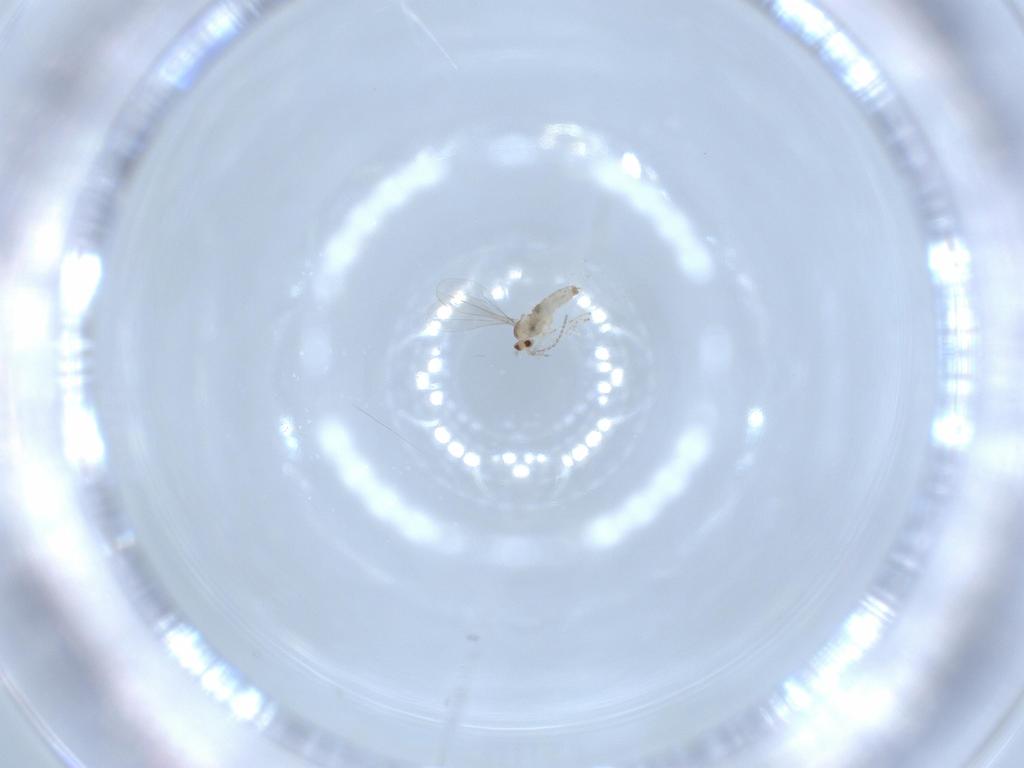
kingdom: Animalia
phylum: Arthropoda
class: Insecta
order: Diptera
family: Cecidomyiidae
